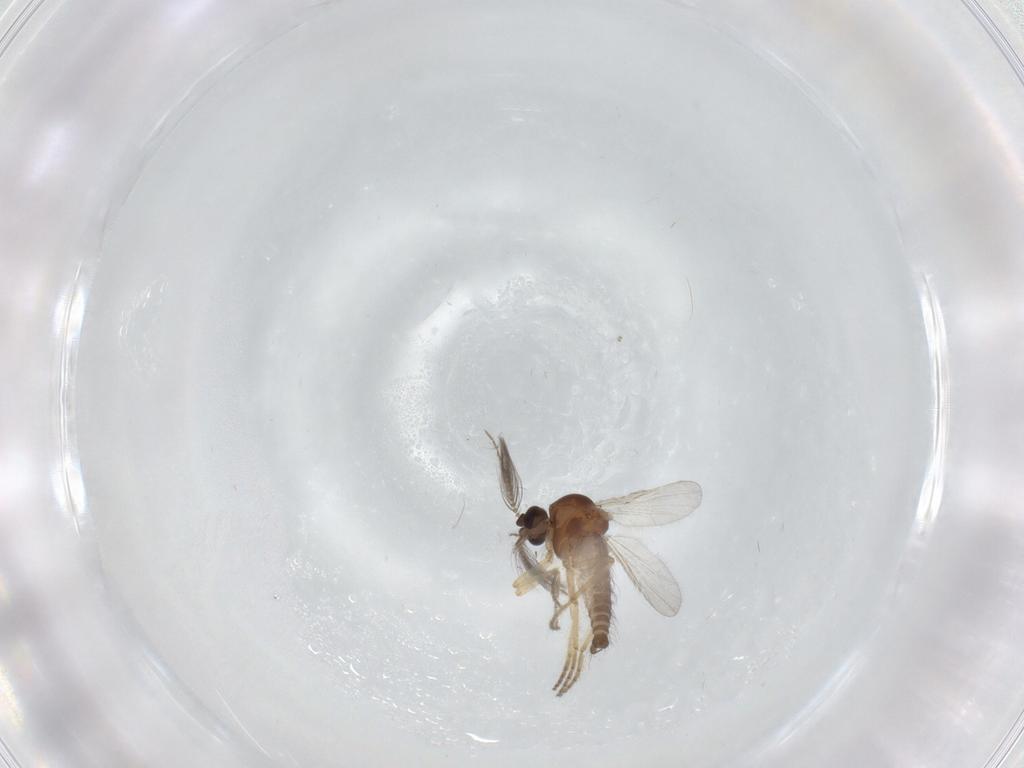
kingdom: Animalia
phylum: Arthropoda
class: Insecta
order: Diptera
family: Ceratopogonidae
